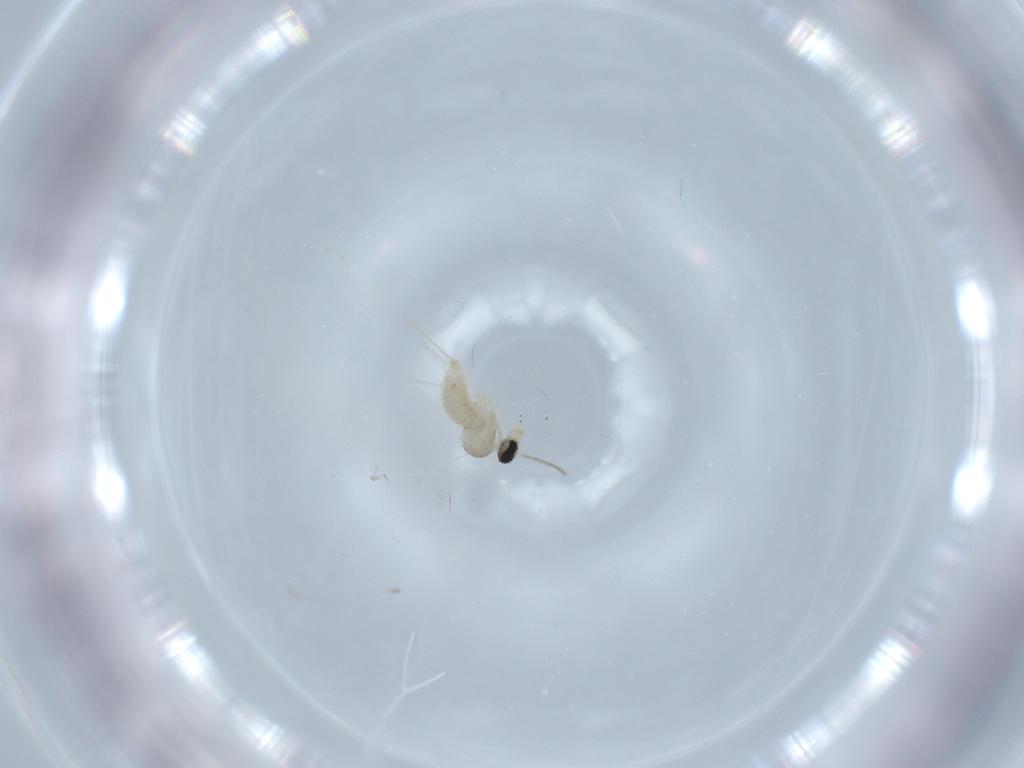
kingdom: Animalia
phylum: Arthropoda
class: Insecta
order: Diptera
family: Cecidomyiidae
